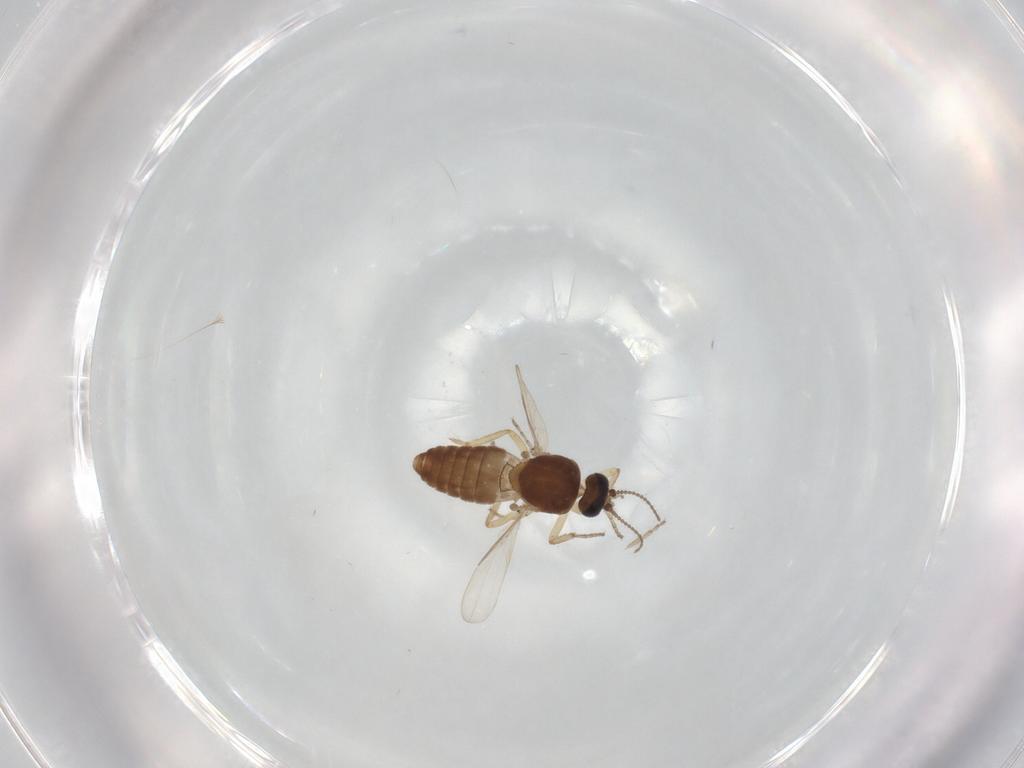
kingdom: Animalia
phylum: Arthropoda
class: Insecta
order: Diptera
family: Ceratopogonidae
